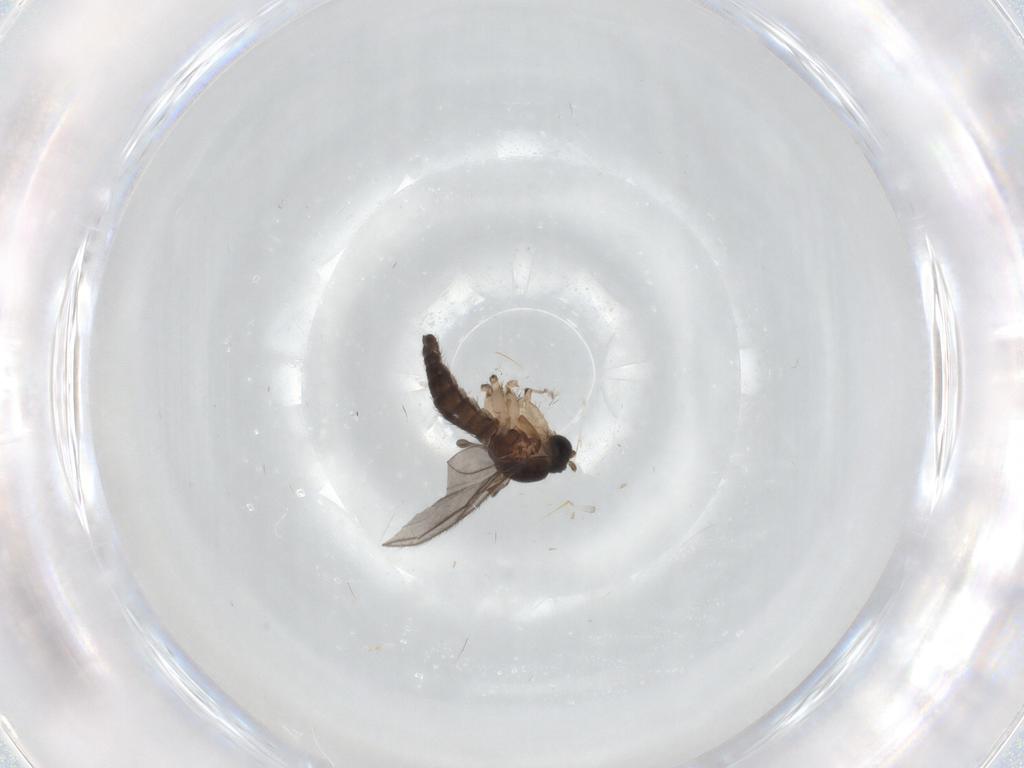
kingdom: Animalia
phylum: Arthropoda
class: Insecta
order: Diptera
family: Sciaridae
